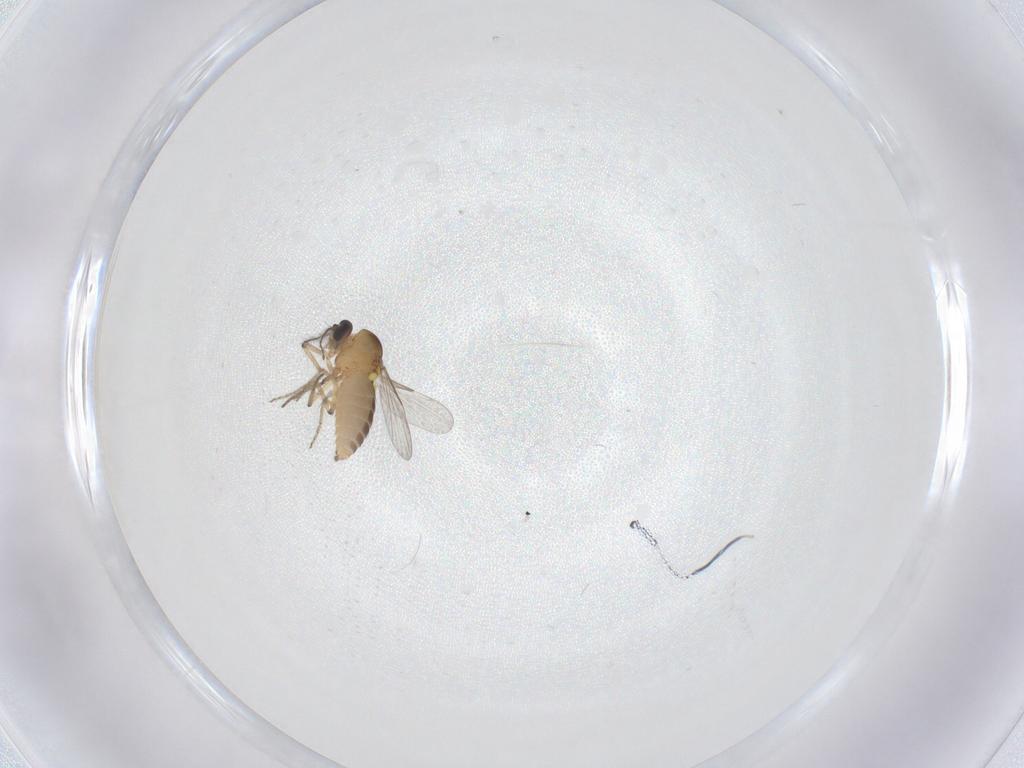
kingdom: Animalia
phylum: Arthropoda
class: Insecta
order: Diptera
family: Ceratopogonidae
